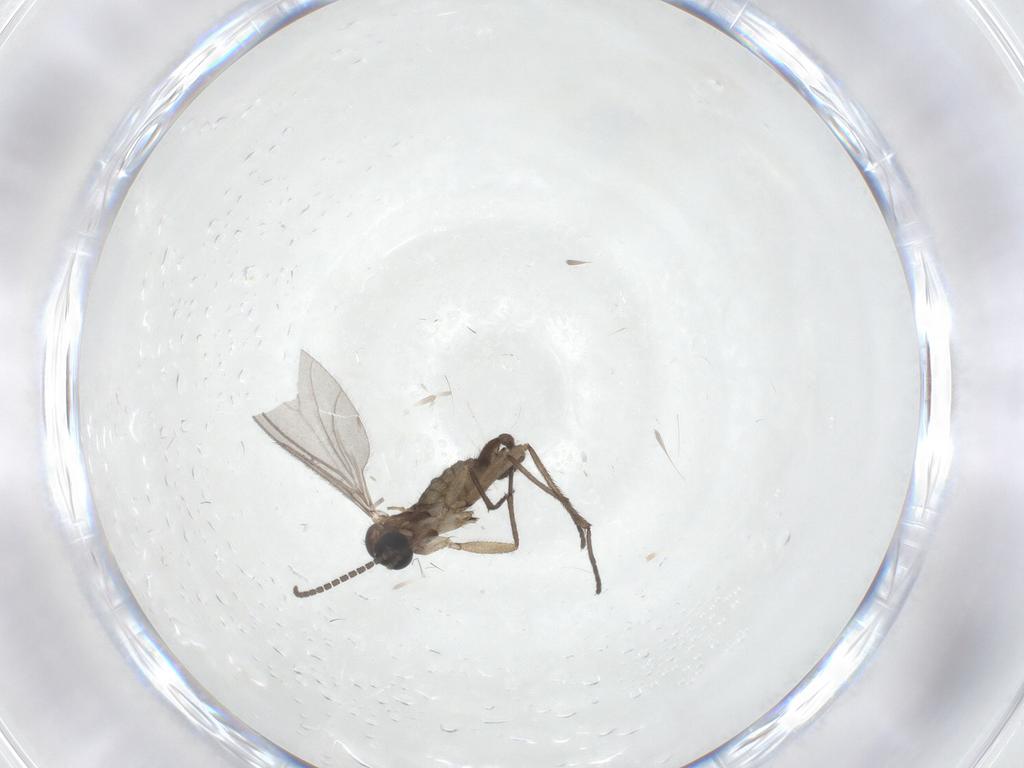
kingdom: Animalia
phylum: Arthropoda
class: Insecta
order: Diptera
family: Sciaridae
